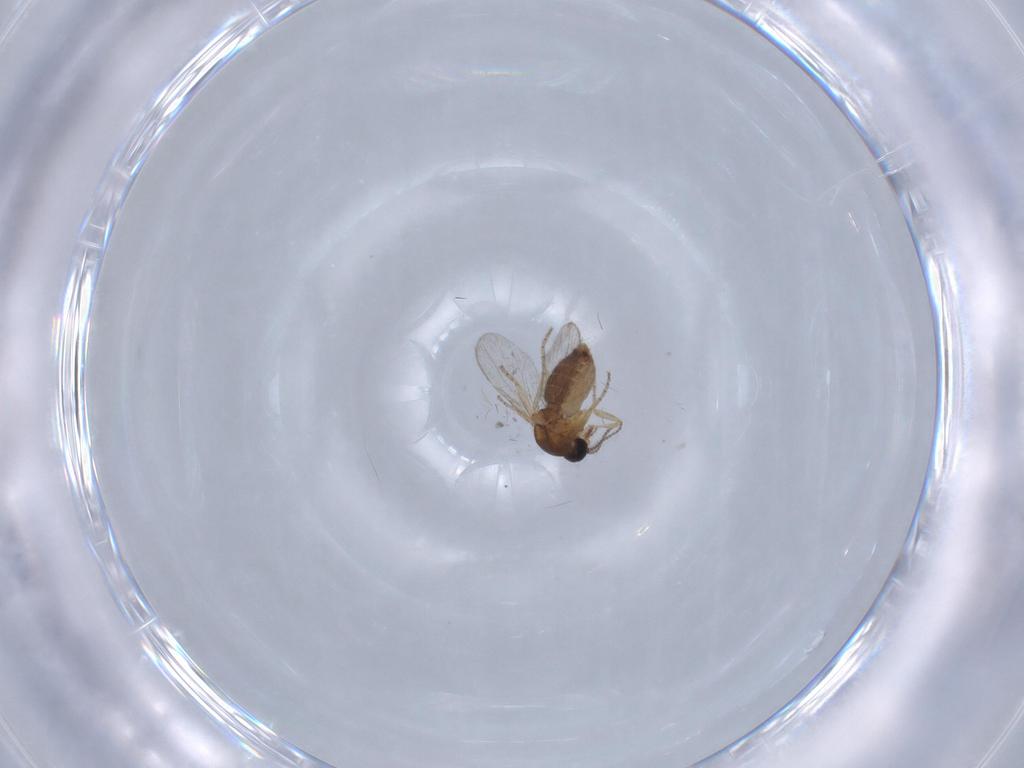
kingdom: Animalia
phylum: Arthropoda
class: Insecta
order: Diptera
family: Ceratopogonidae
